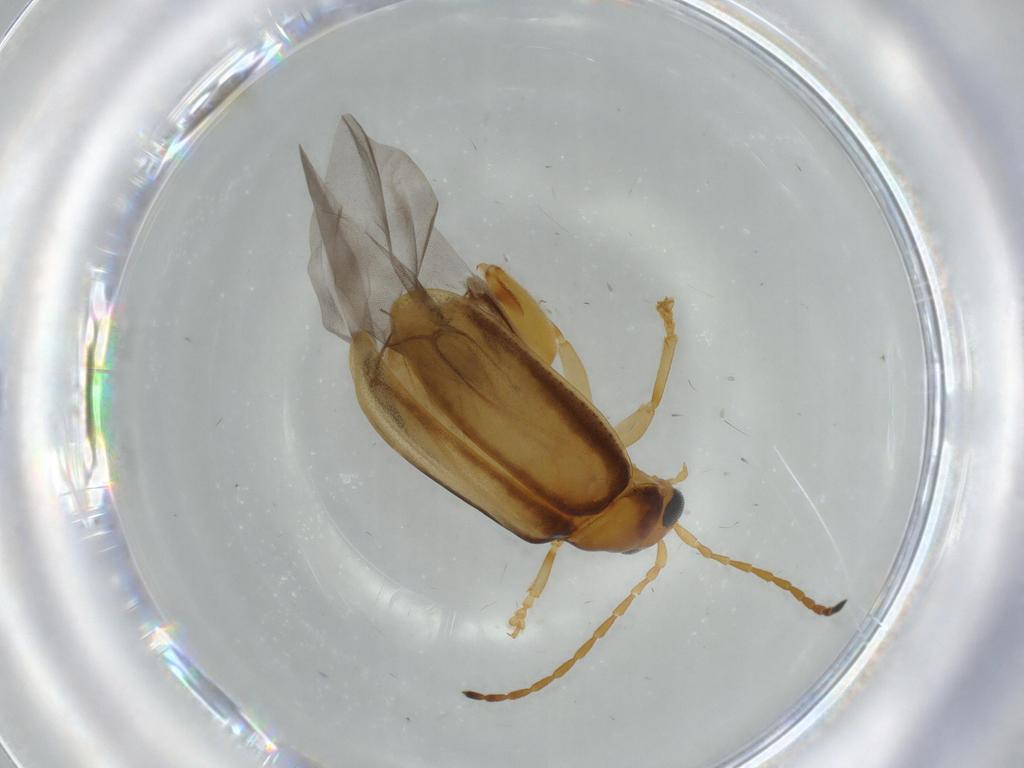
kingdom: Animalia
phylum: Arthropoda
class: Insecta
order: Coleoptera
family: Chrysomelidae
